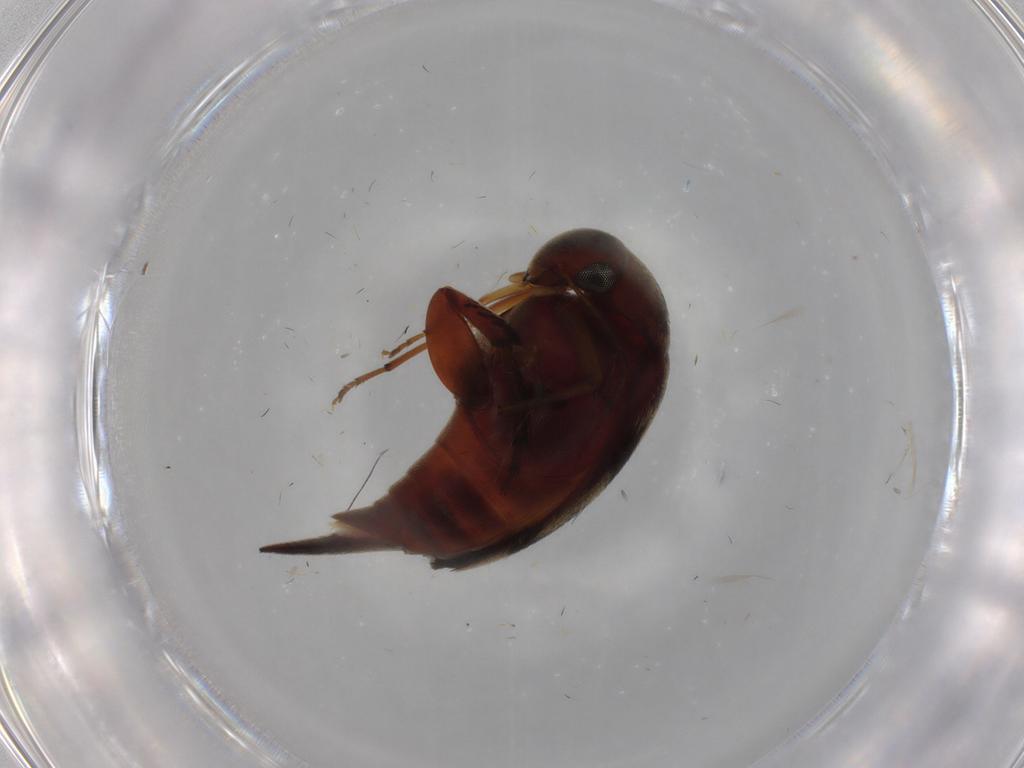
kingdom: Animalia
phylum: Arthropoda
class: Insecta
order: Coleoptera
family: Mordellidae
